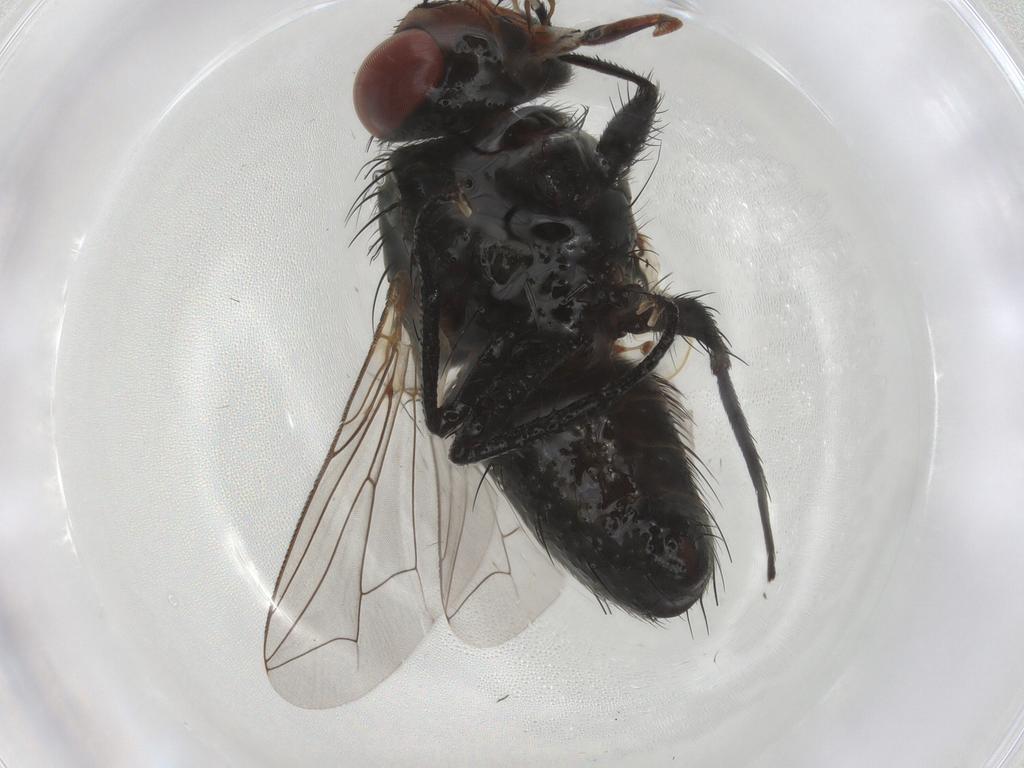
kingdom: Animalia
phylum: Arthropoda
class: Insecta
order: Diptera
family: Sarcophagidae
